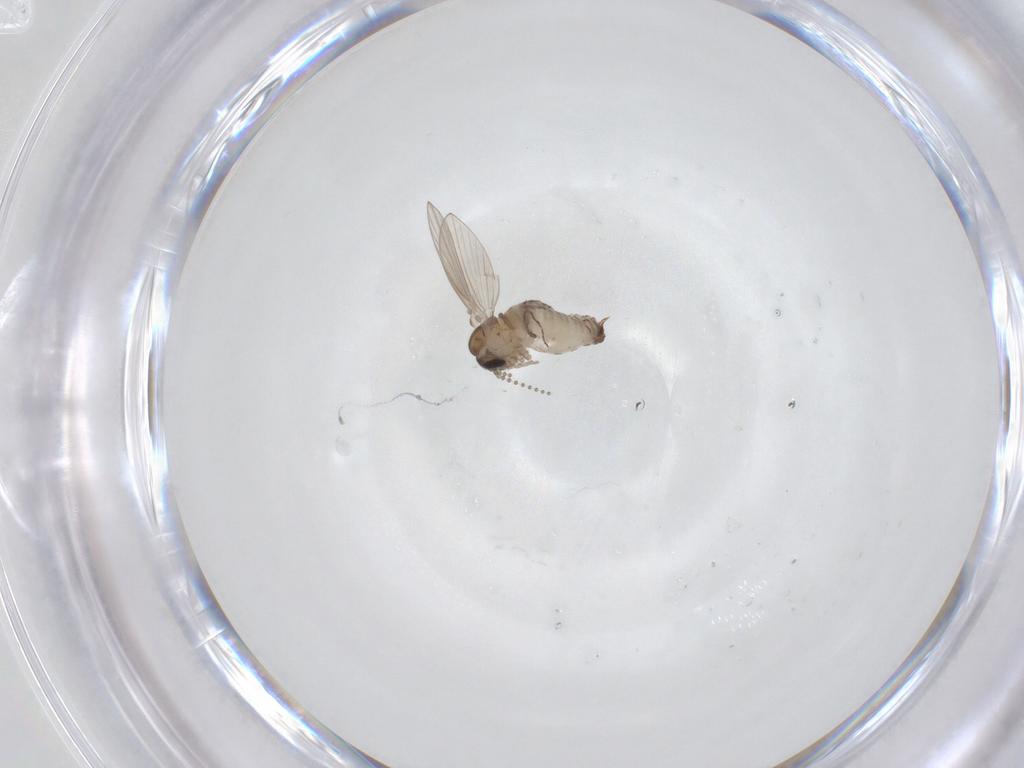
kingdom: Animalia
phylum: Arthropoda
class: Insecta
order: Diptera
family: Psychodidae
